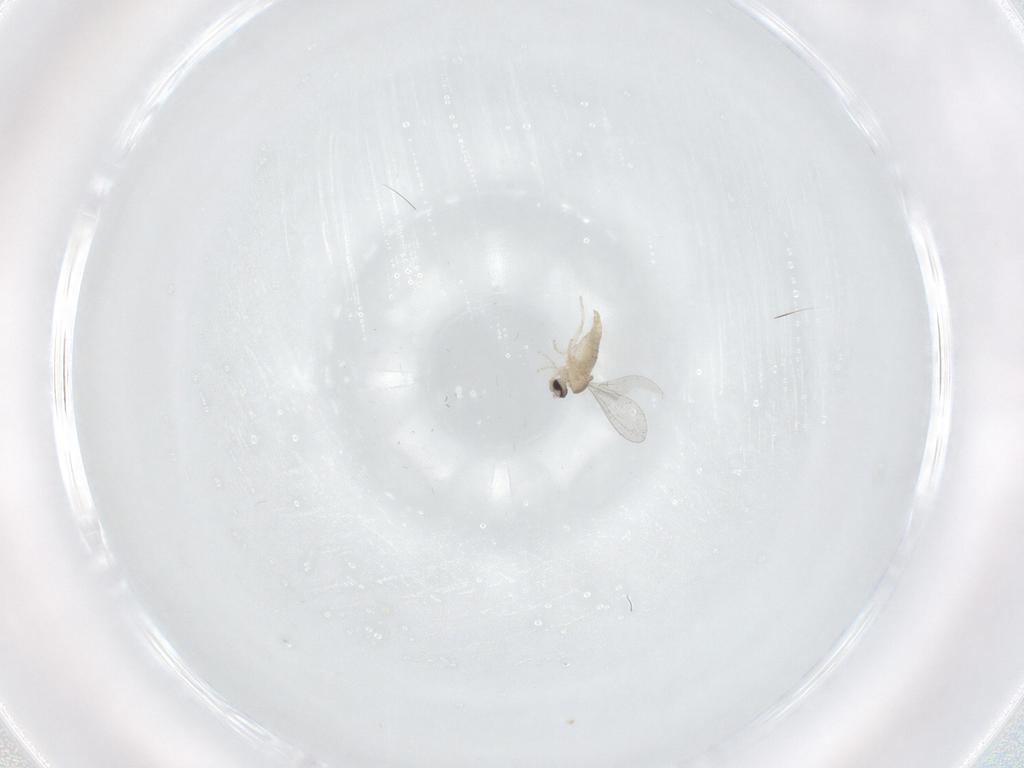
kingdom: Animalia
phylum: Arthropoda
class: Insecta
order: Diptera
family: Cecidomyiidae
